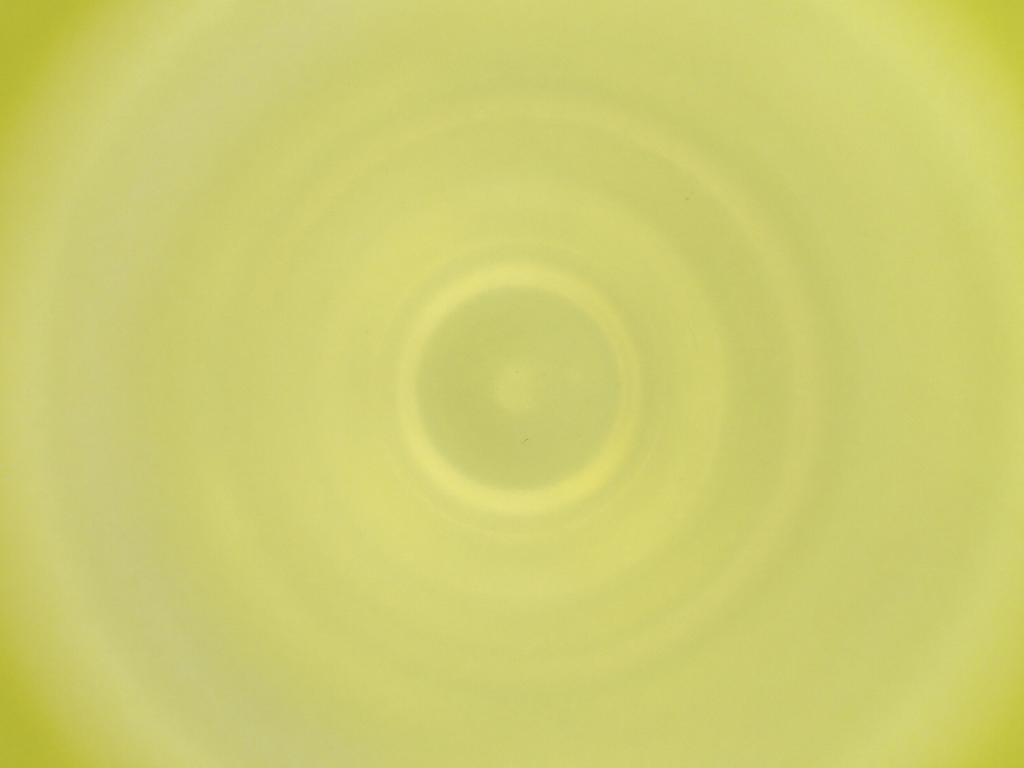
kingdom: Animalia
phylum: Arthropoda
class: Insecta
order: Diptera
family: Cecidomyiidae
